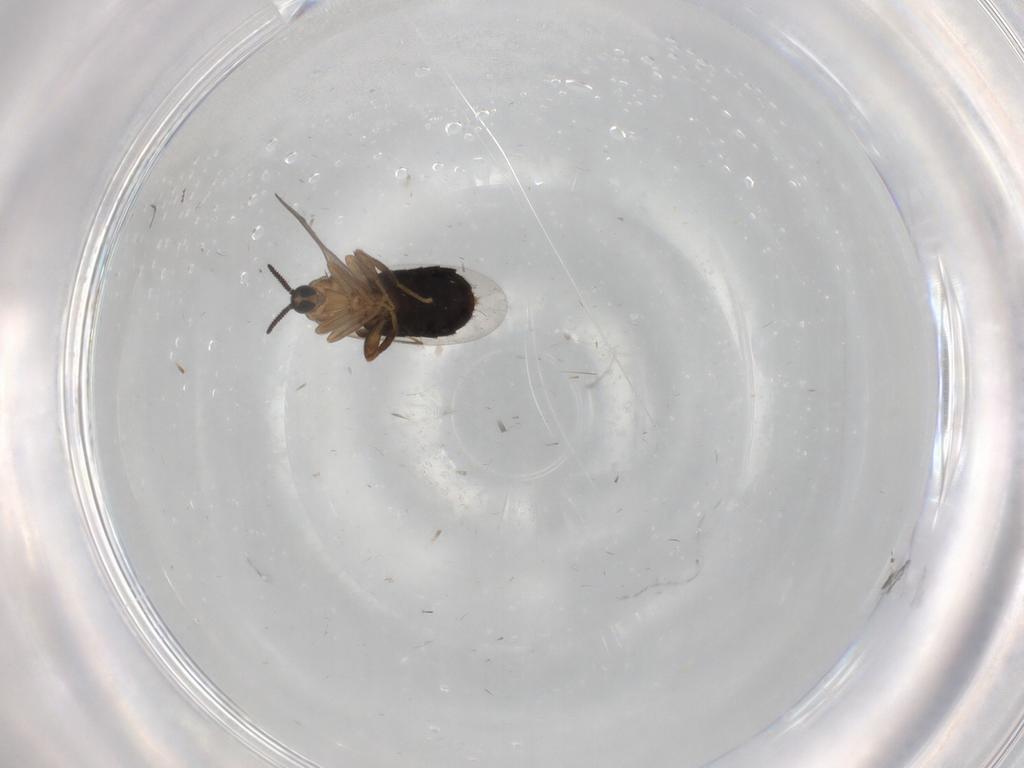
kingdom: Animalia
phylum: Arthropoda
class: Insecta
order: Diptera
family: Scatopsidae
